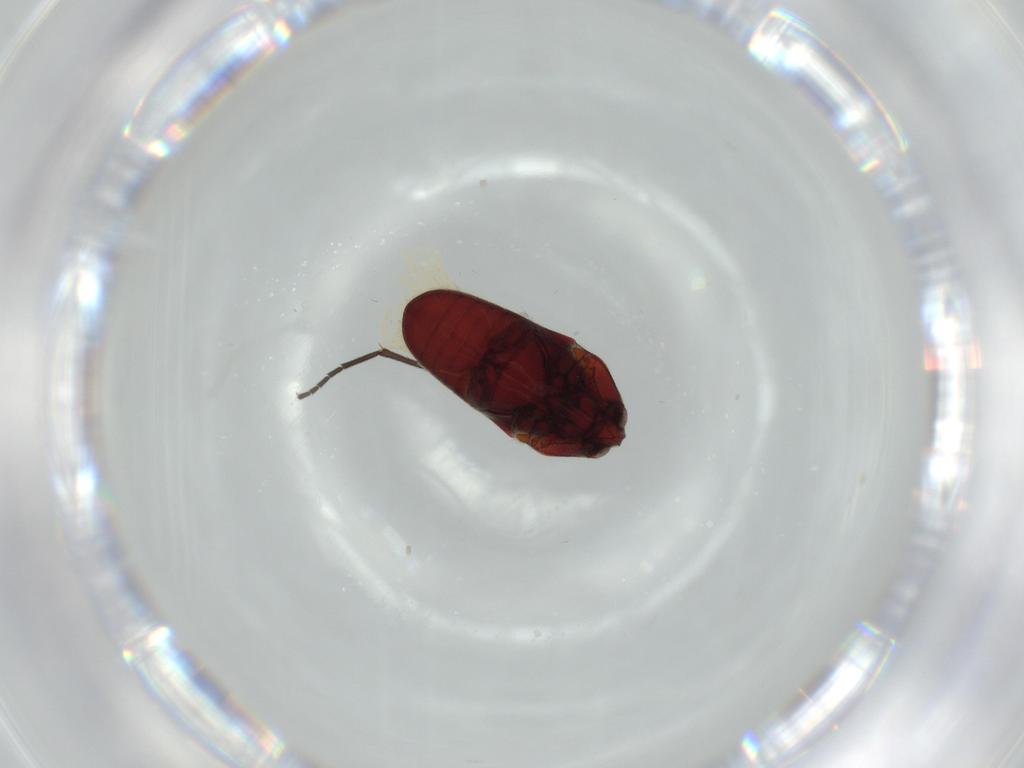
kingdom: Animalia
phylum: Arthropoda
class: Insecta
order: Coleoptera
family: Throscidae
